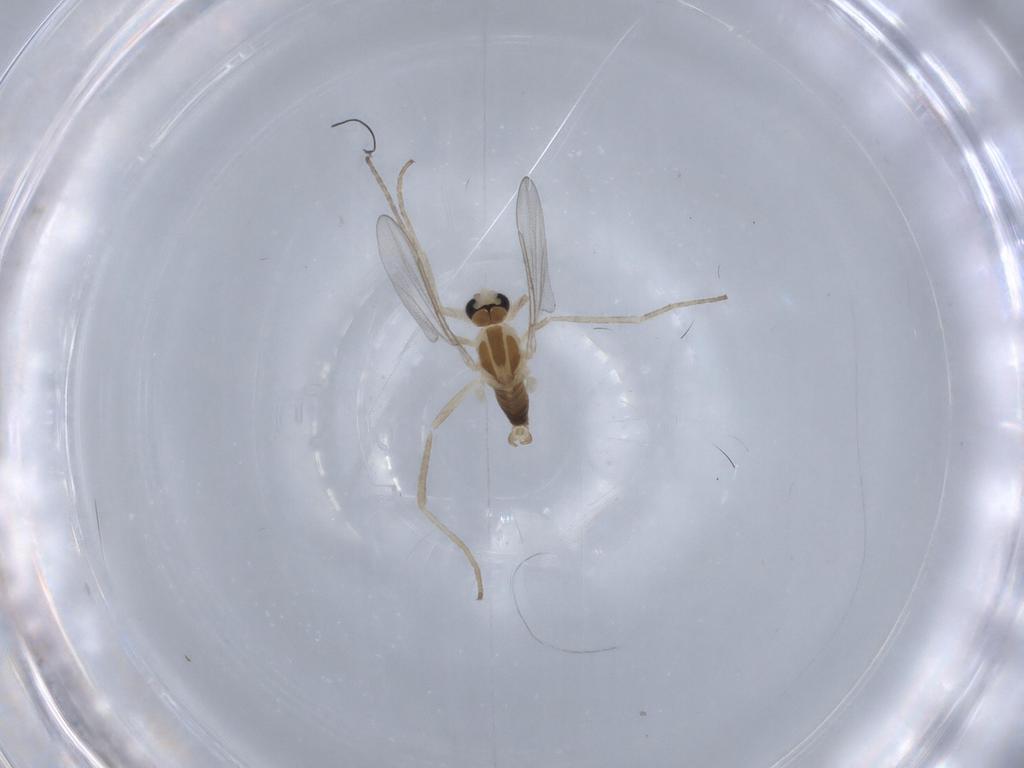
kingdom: Animalia
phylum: Arthropoda
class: Insecta
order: Diptera
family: Cecidomyiidae
